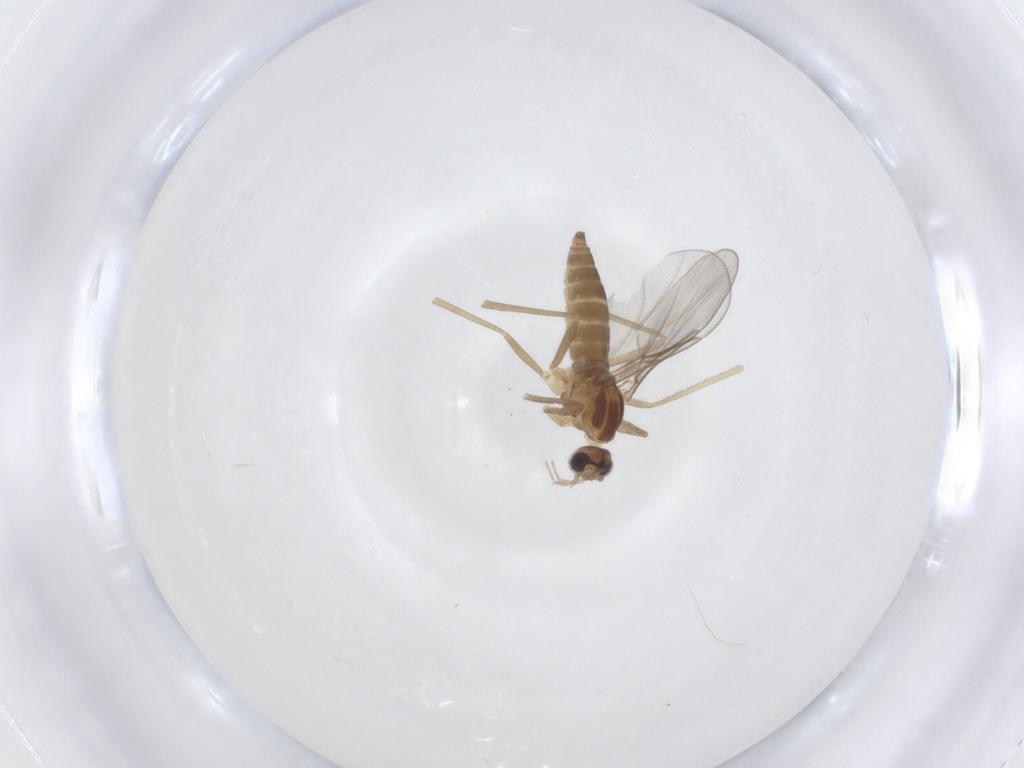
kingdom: Animalia
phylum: Arthropoda
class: Insecta
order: Diptera
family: Cecidomyiidae
